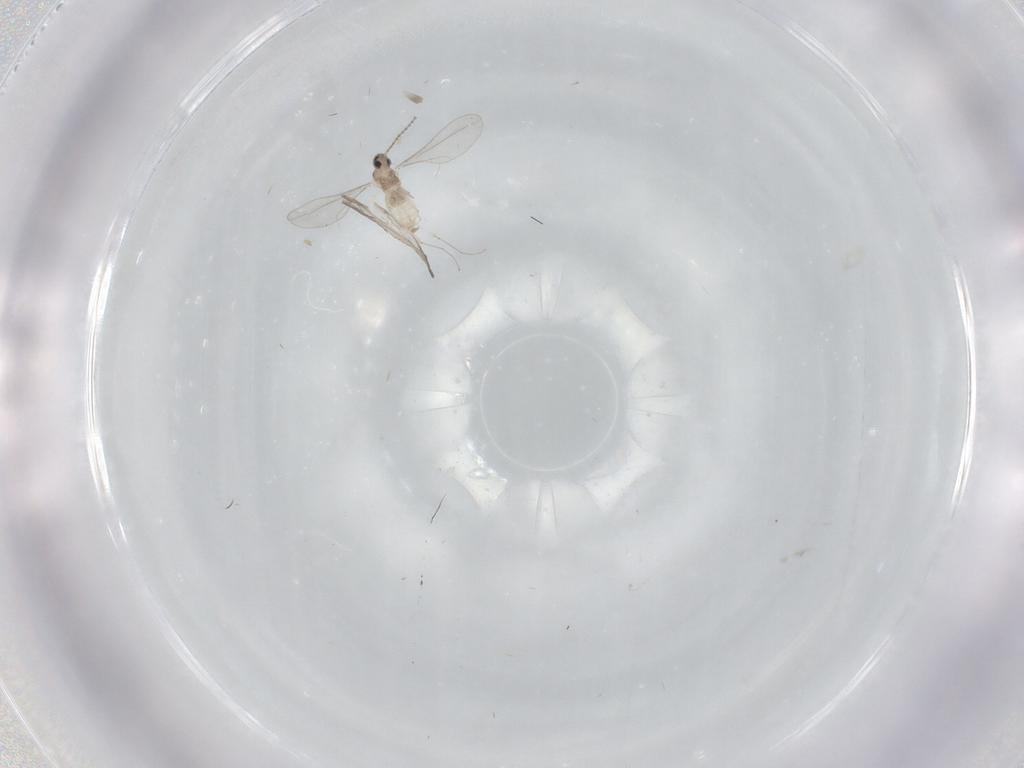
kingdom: Animalia
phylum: Arthropoda
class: Insecta
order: Diptera
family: Cecidomyiidae
